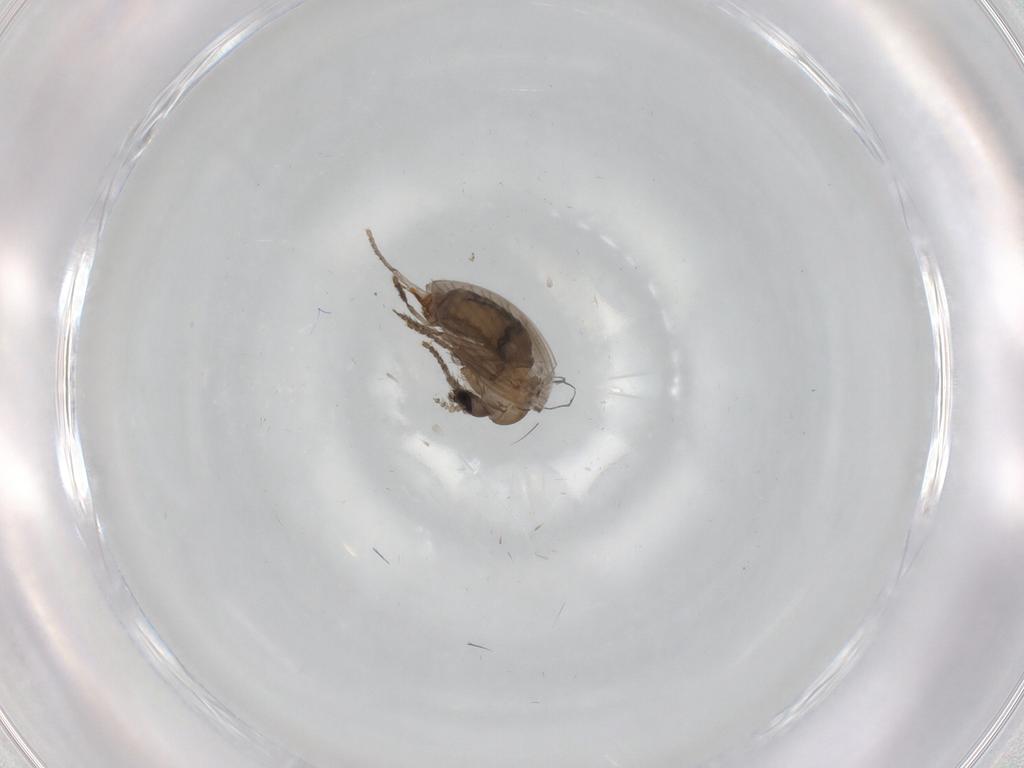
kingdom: Animalia
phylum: Arthropoda
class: Insecta
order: Diptera
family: Psychodidae
